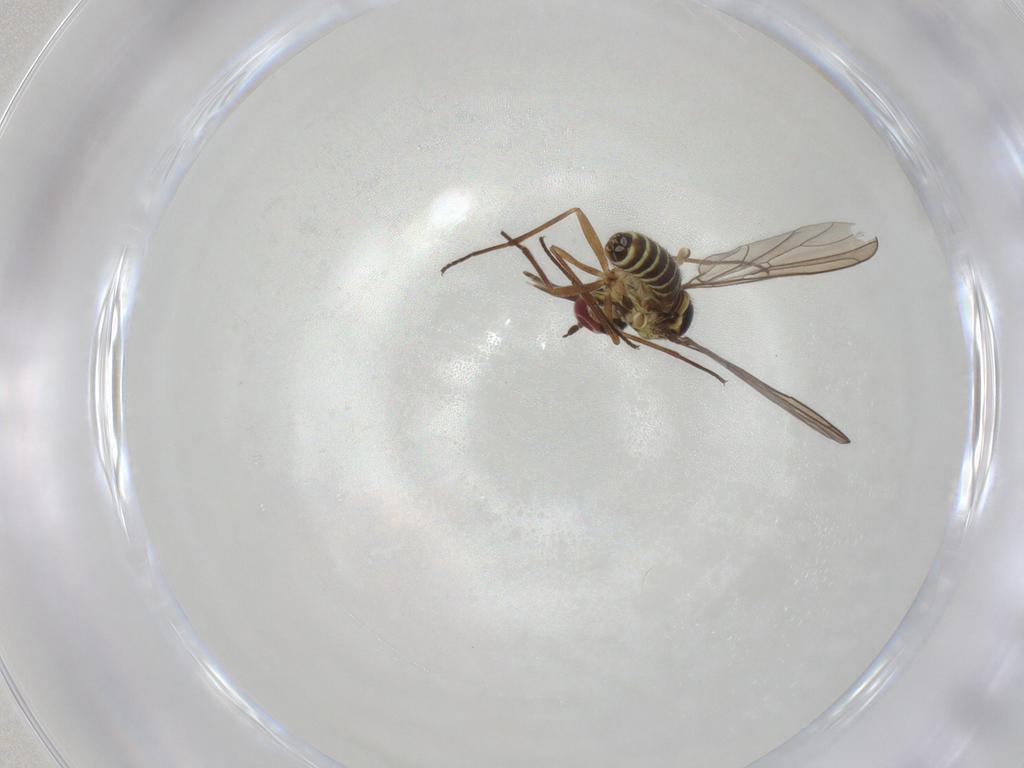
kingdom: Animalia
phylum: Arthropoda
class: Insecta
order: Diptera
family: Mythicomyiidae
